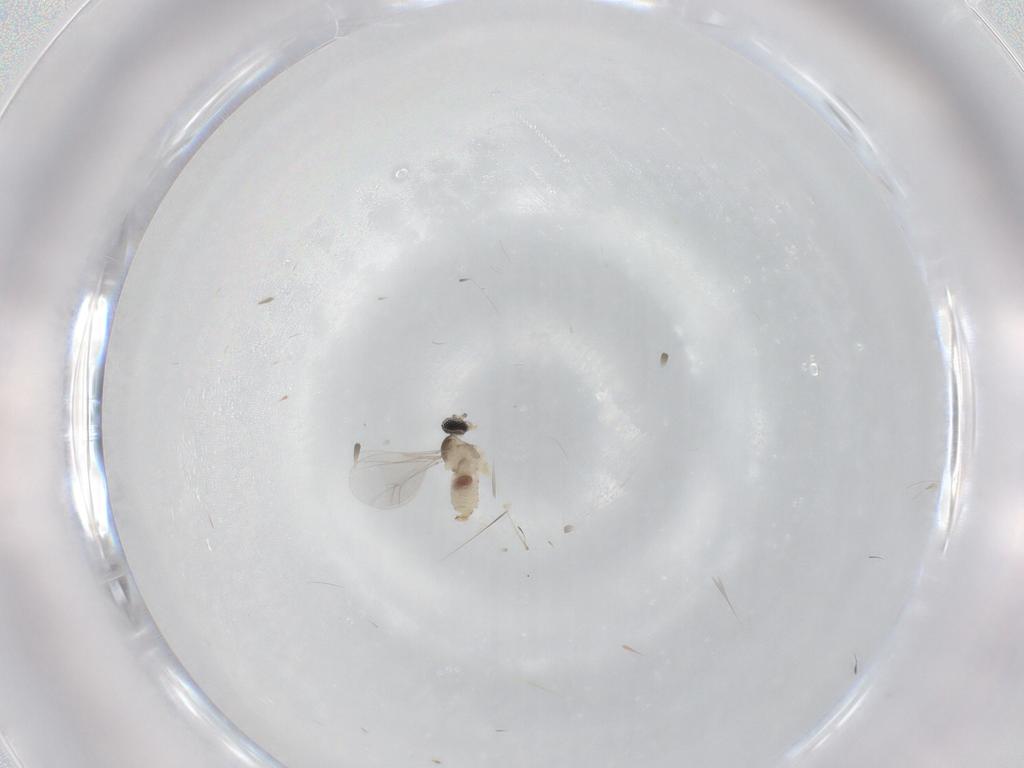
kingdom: Animalia
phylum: Arthropoda
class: Insecta
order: Diptera
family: Cecidomyiidae
